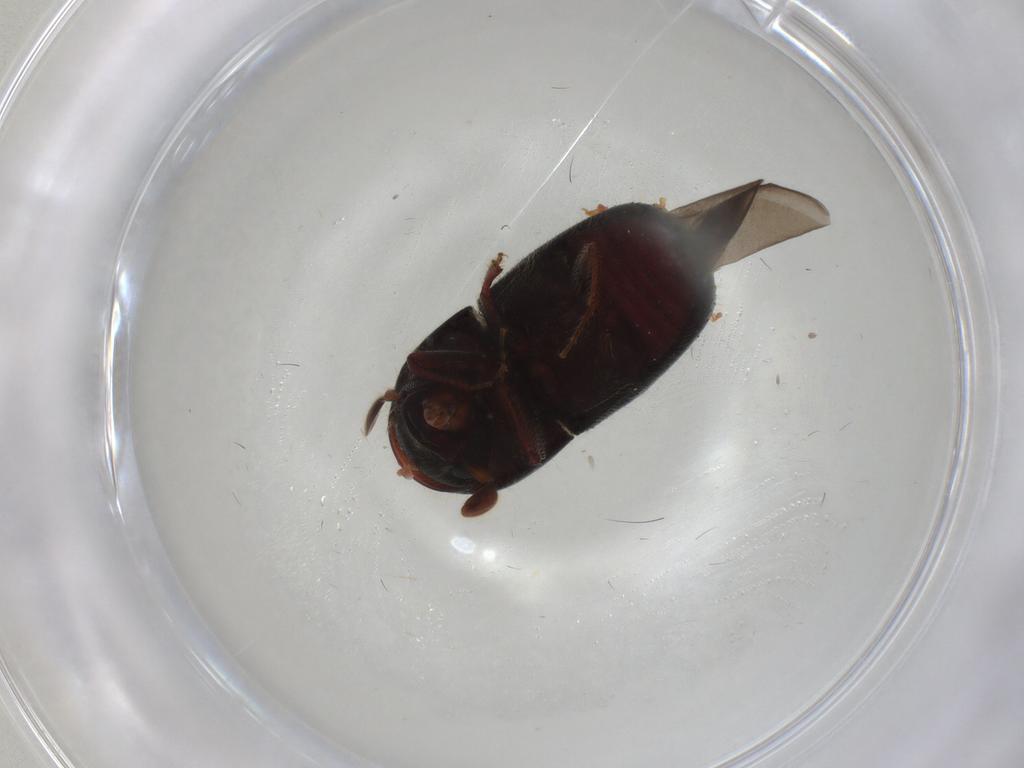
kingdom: Animalia
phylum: Arthropoda
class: Insecta
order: Coleoptera
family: Curculionidae
